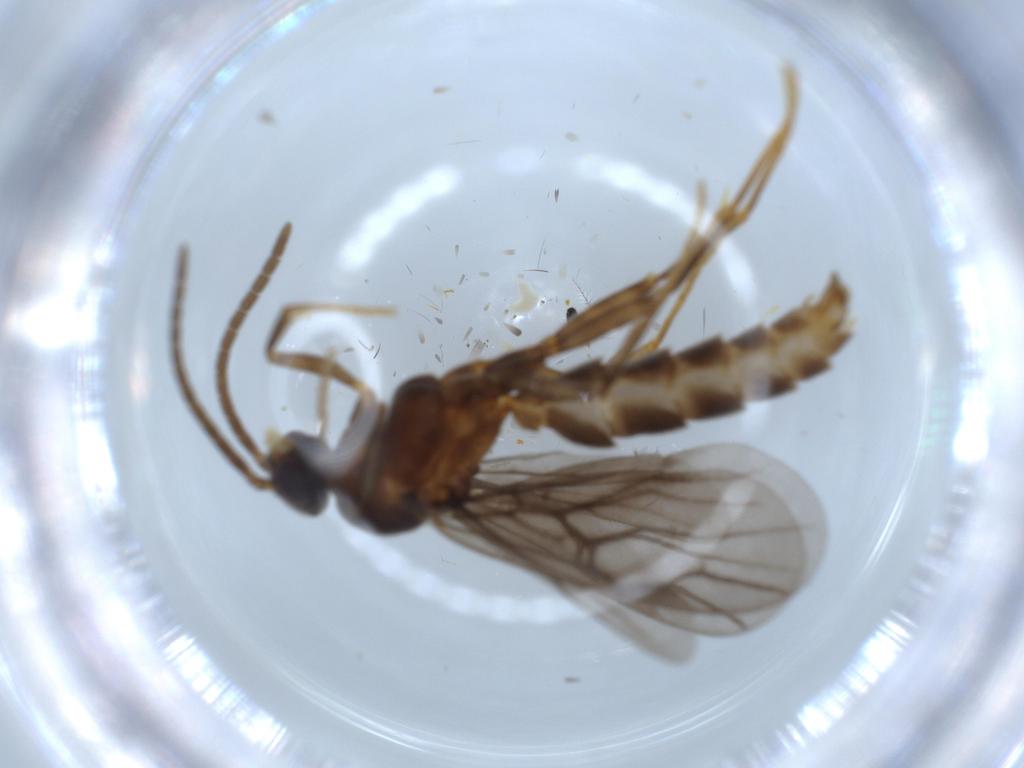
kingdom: Animalia
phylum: Arthropoda
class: Insecta
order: Hymenoptera
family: Formicidae
